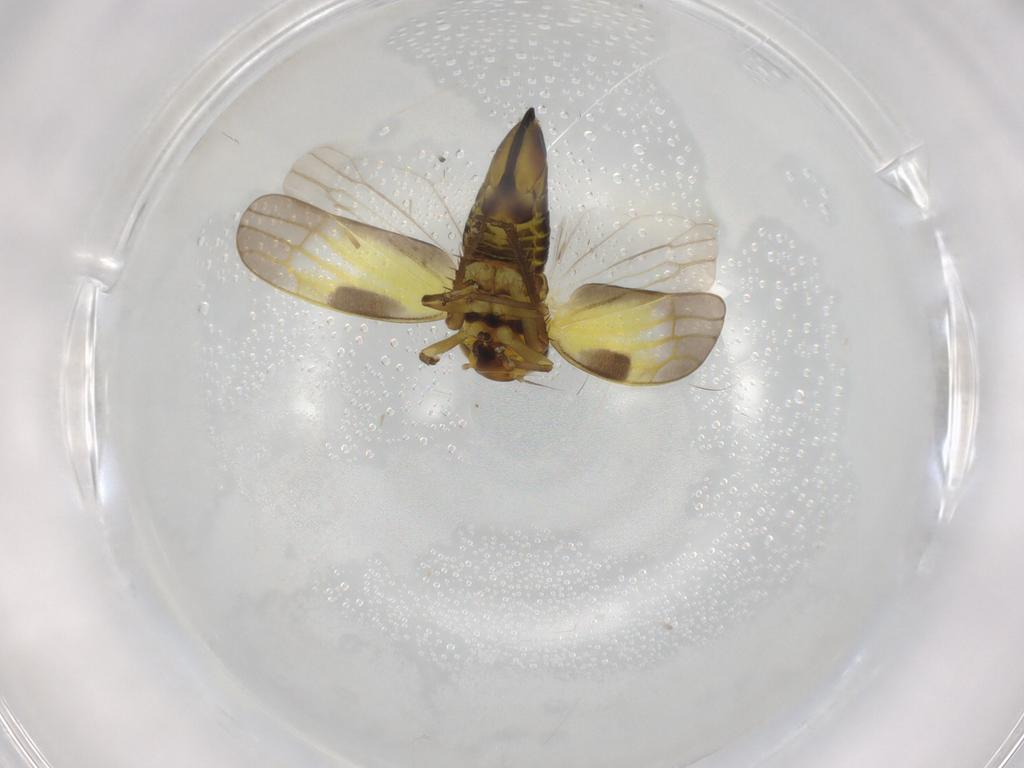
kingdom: Animalia
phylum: Arthropoda
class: Insecta
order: Hemiptera
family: Cicadellidae
